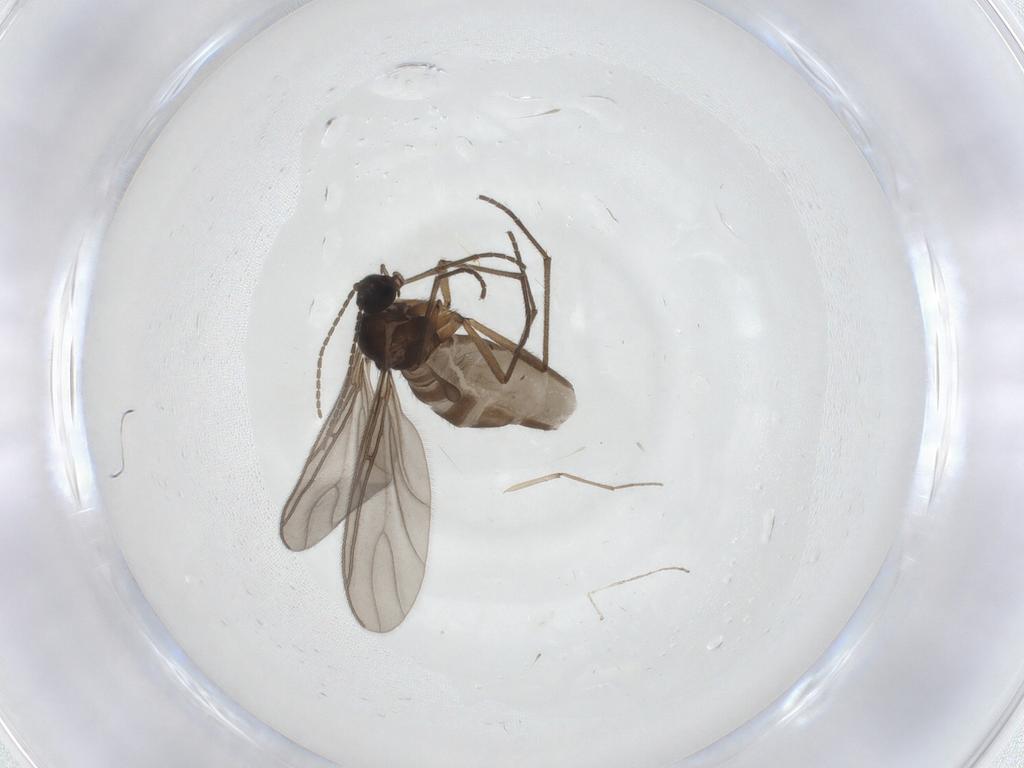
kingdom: Animalia
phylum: Arthropoda
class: Insecta
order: Diptera
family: Sciaridae
